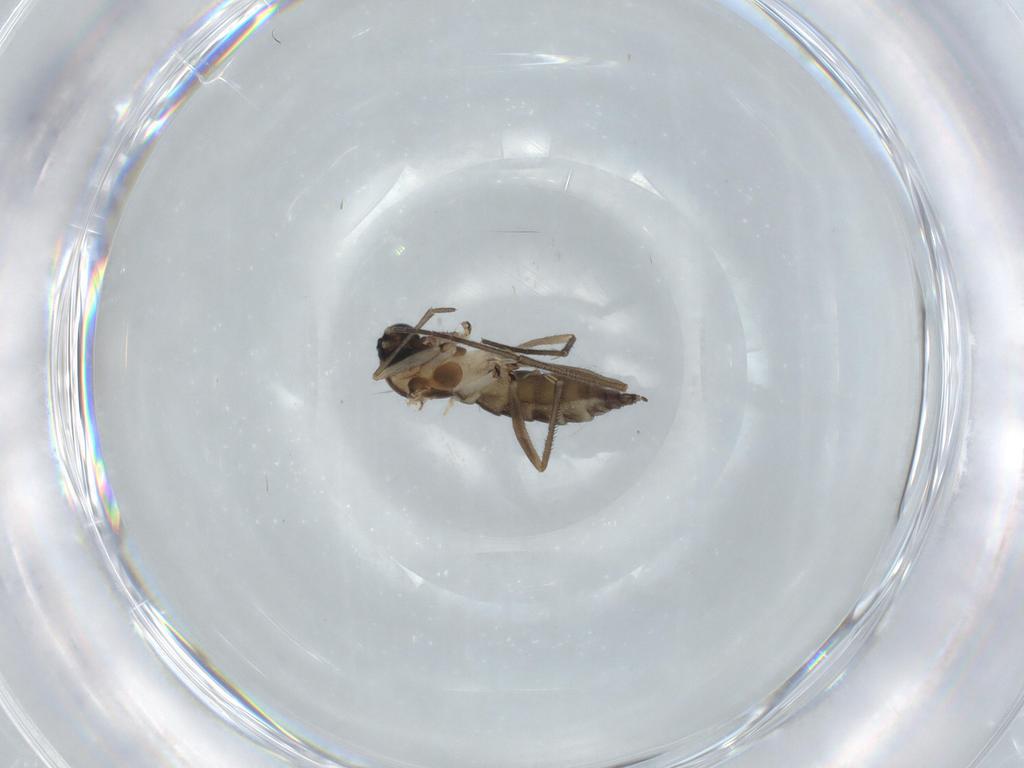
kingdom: Animalia
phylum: Arthropoda
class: Insecta
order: Diptera
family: Sciaridae
